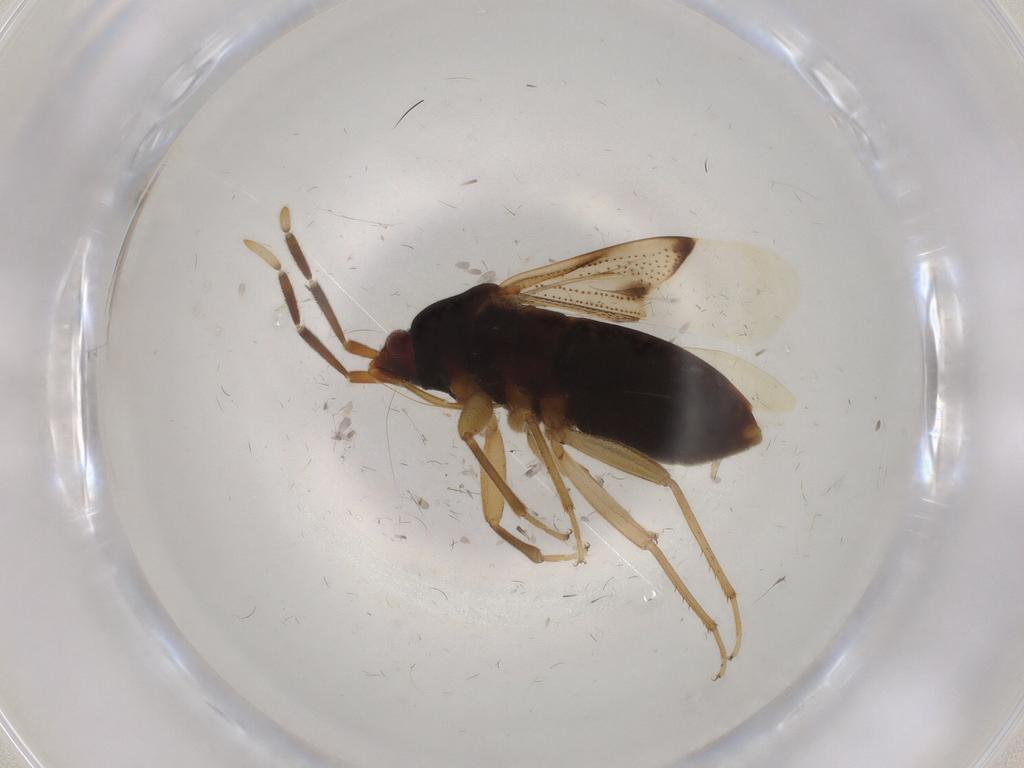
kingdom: Animalia
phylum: Arthropoda
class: Insecta
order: Hemiptera
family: Rhyparochromidae
